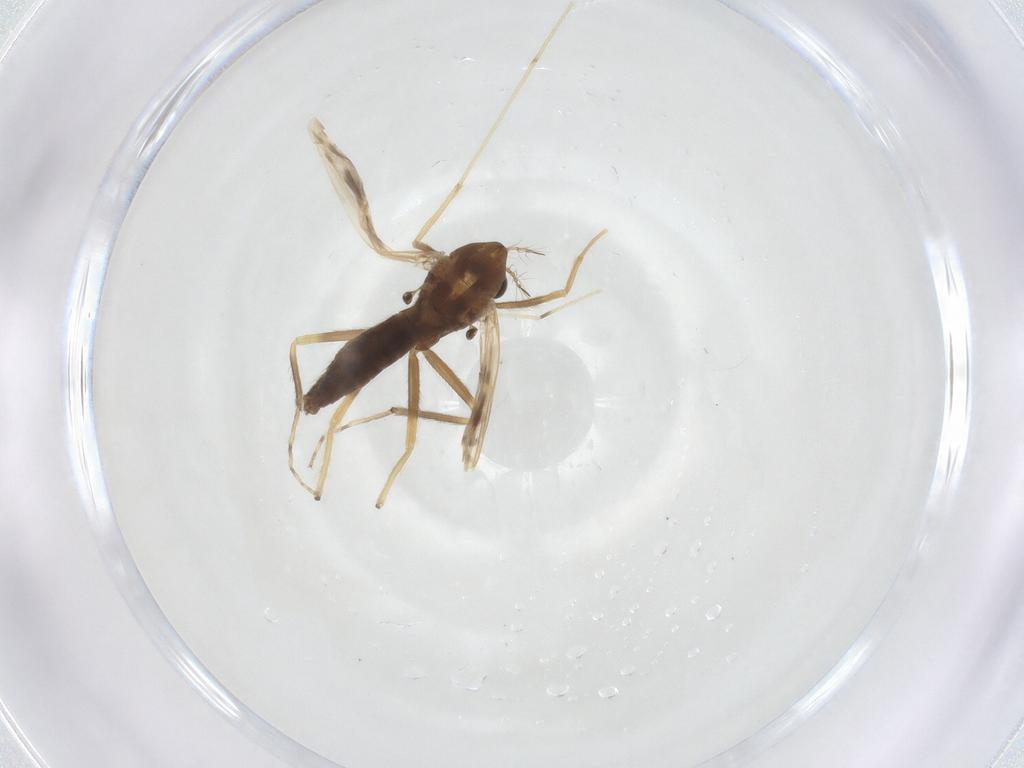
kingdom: Animalia
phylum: Arthropoda
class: Insecta
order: Diptera
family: Chironomidae
